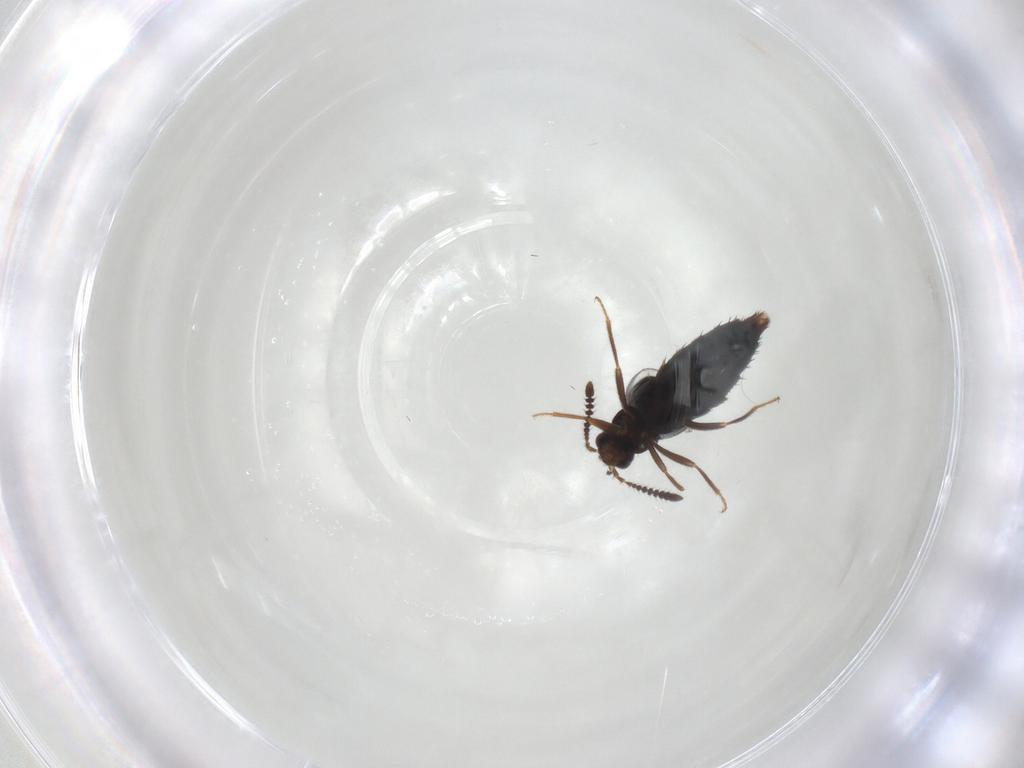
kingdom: Animalia
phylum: Arthropoda
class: Insecta
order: Coleoptera
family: Staphylinidae
